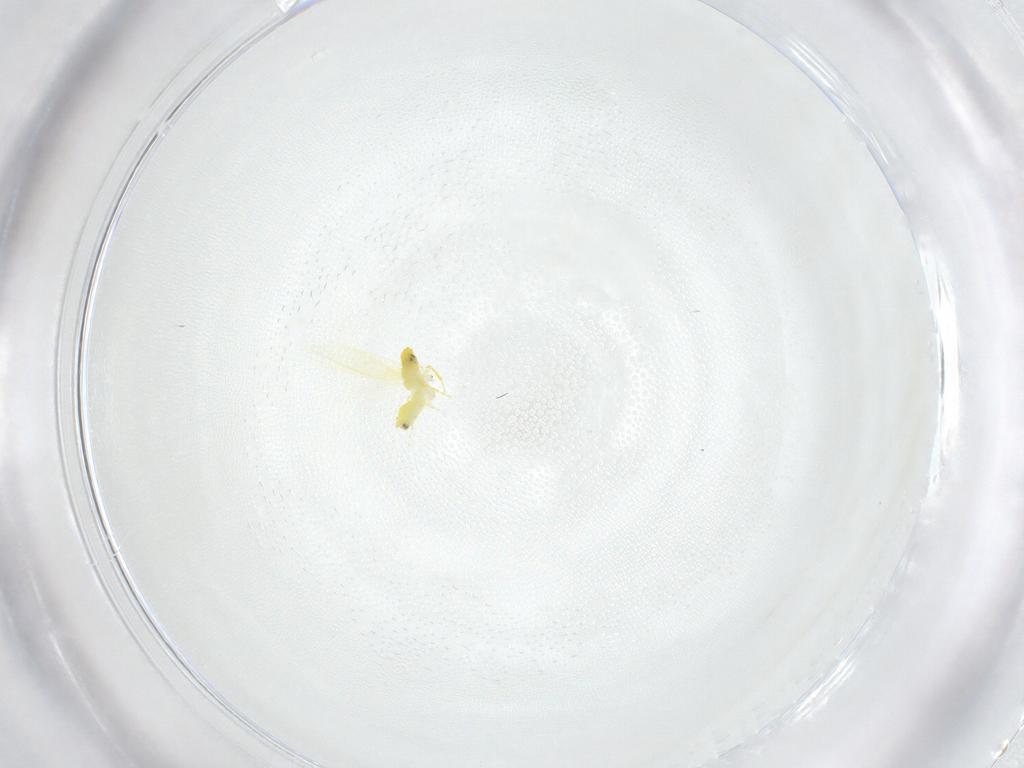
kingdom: Animalia
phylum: Arthropoda
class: Insecta
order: Hemiptera
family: Aleyrodidae
